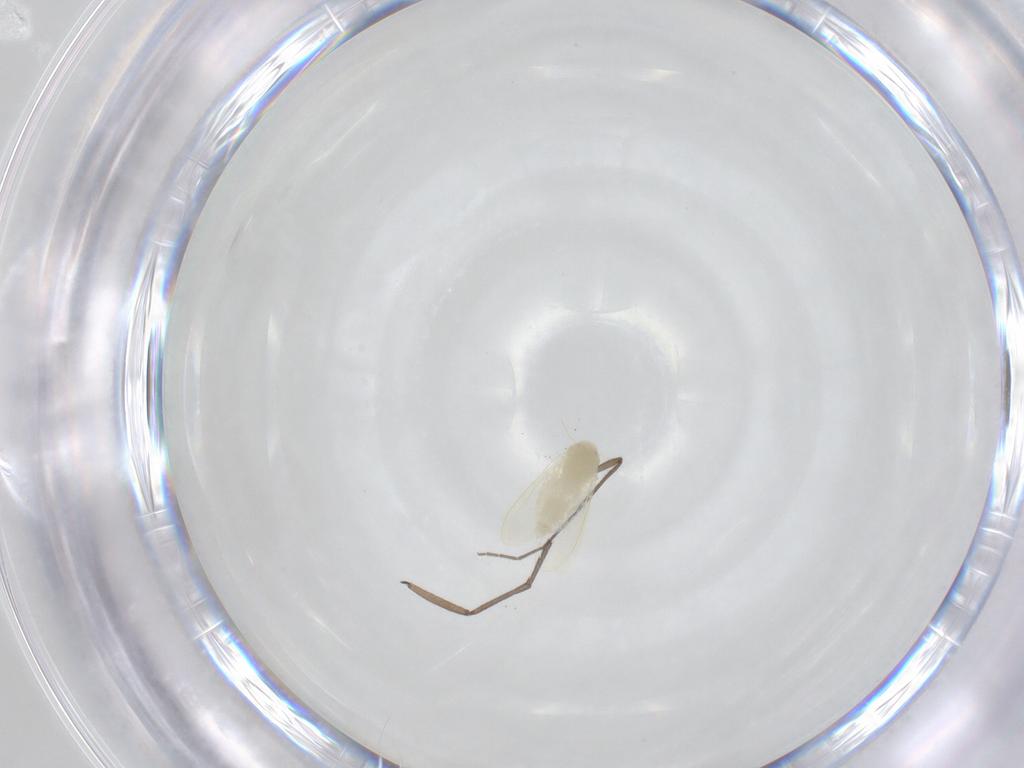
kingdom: Animalia
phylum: Arthropoda
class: Insecta
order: Hemiptera
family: Aleyrodidae
